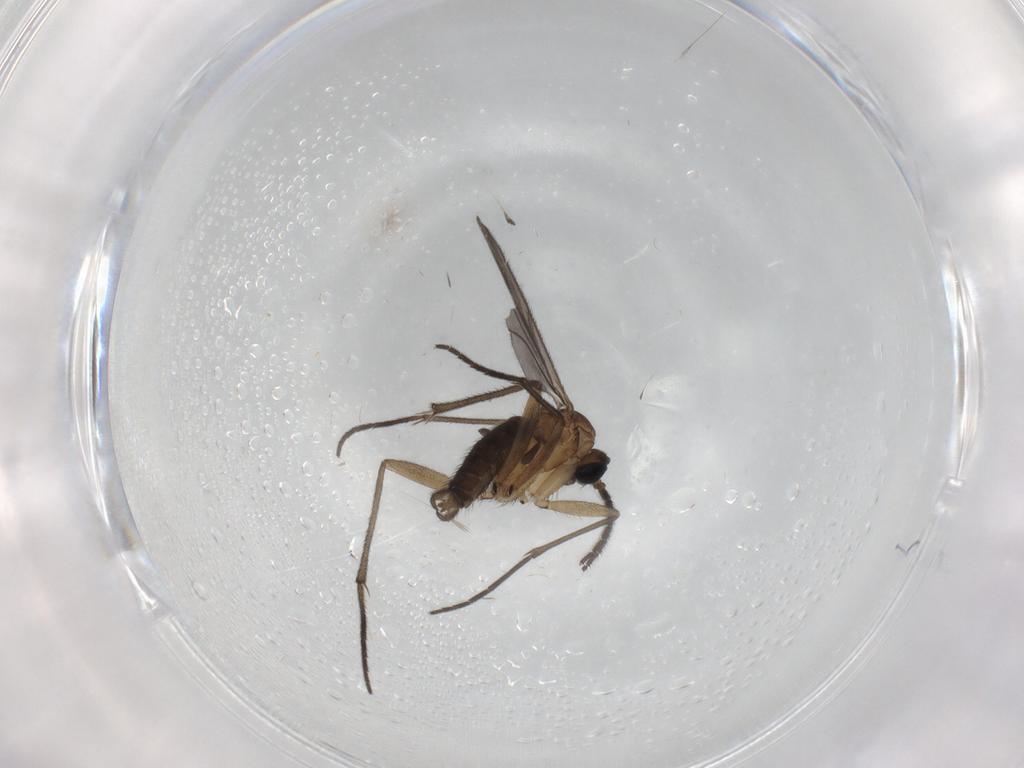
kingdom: Animalia
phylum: Arthropoda
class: Insecta
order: Diptera
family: Sciaridae
